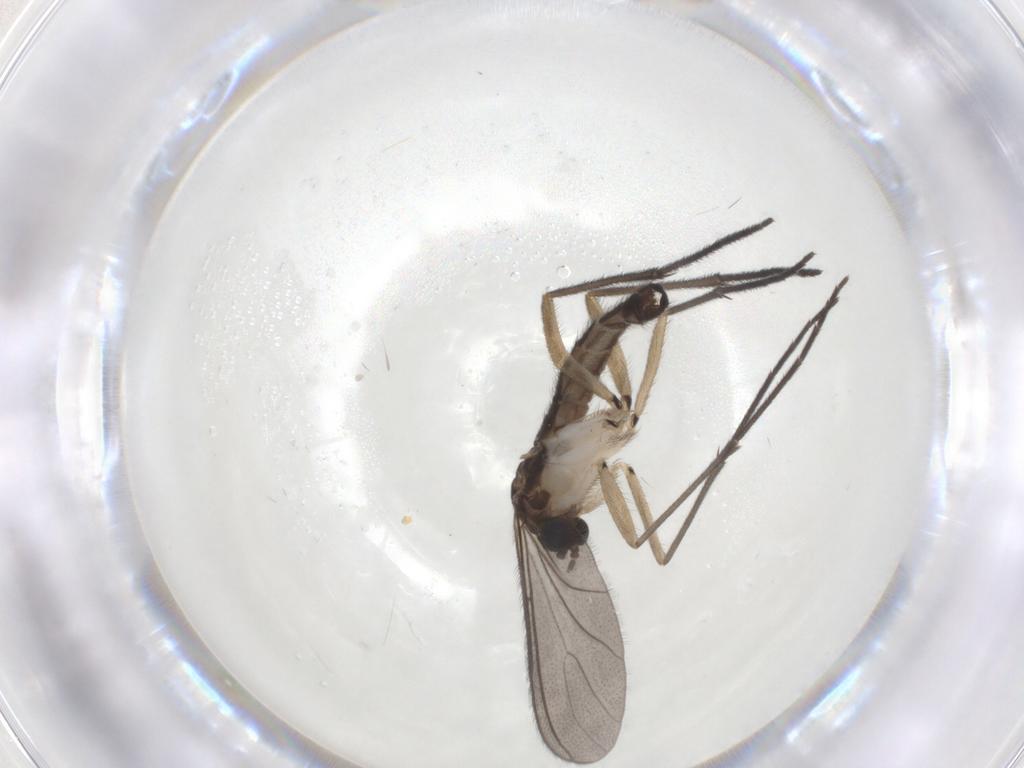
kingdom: Animalia
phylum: Arthropoda
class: Insecta
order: Diptera
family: Sciaridae
